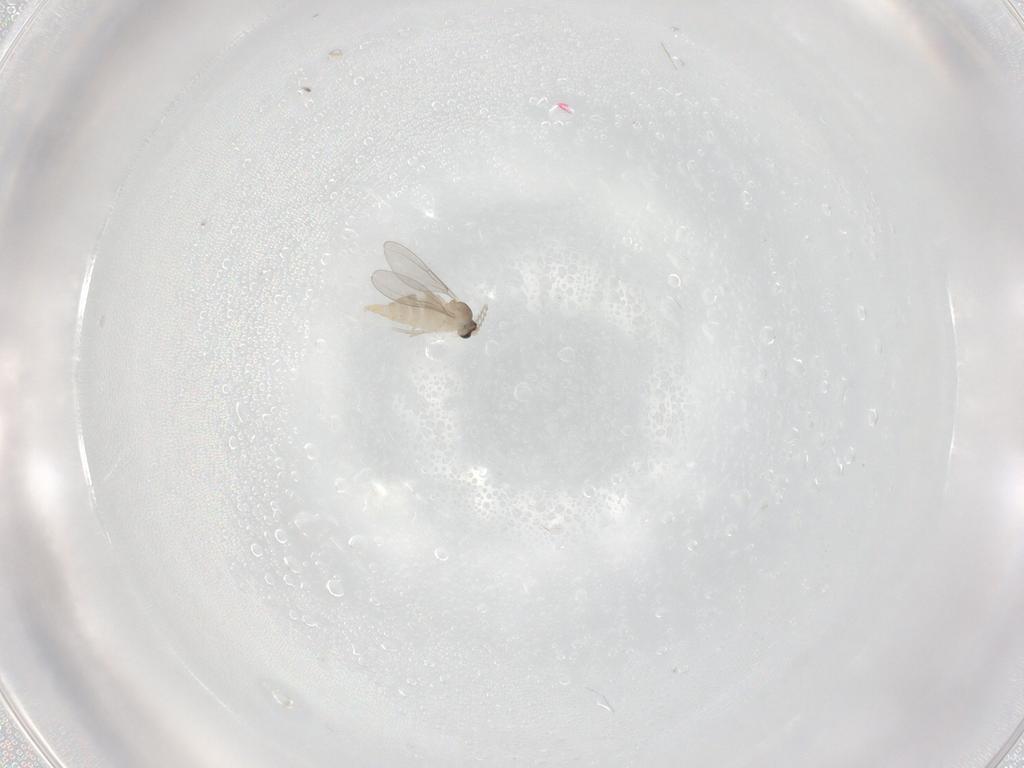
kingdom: Animalia
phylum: Arthropoda
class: Insecta
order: Diptera
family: Cecidomyiidae
